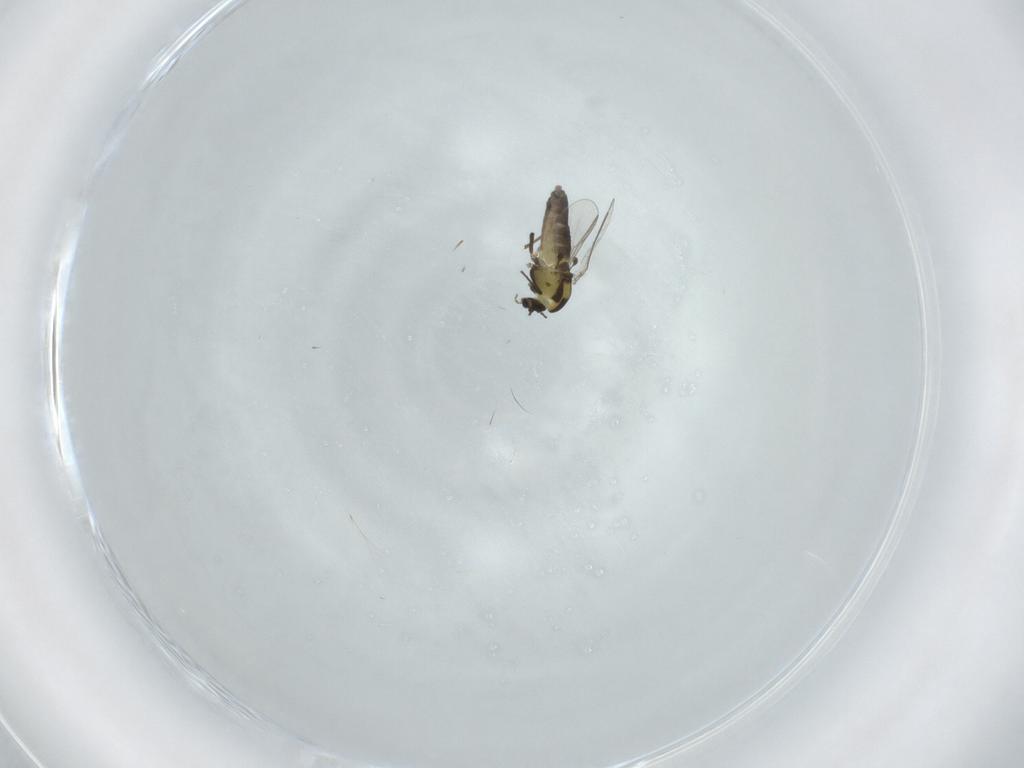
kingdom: Animalia
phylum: Arthropoda
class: Insecta
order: Diptera
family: Chironomidae
